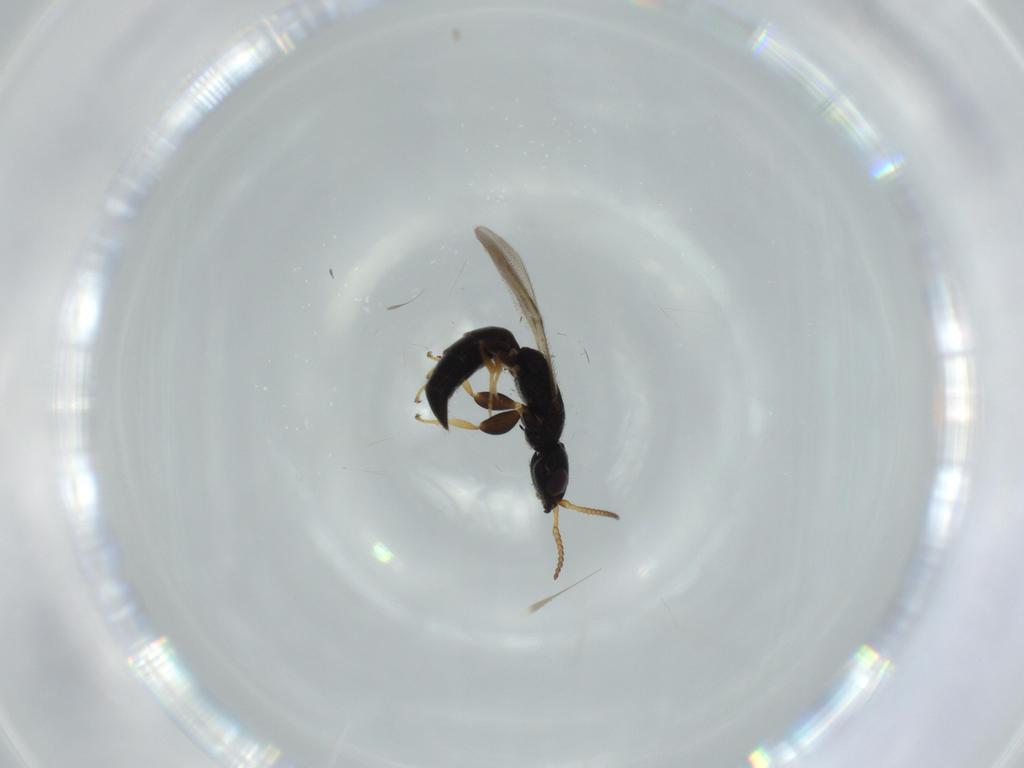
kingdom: Animalia
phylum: Arthropoda
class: Insecta
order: Hymenoptera
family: Bethylidae
